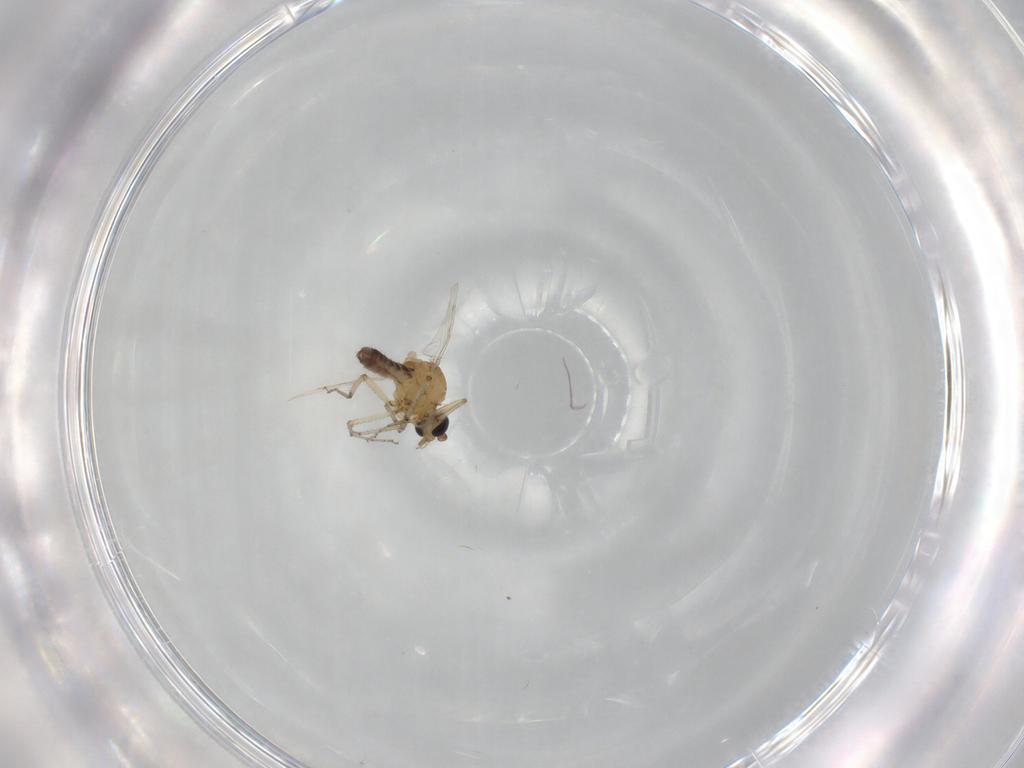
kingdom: Animalia
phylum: Arthropoda
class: Insecta
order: Diptera
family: Ceratopogonidae
